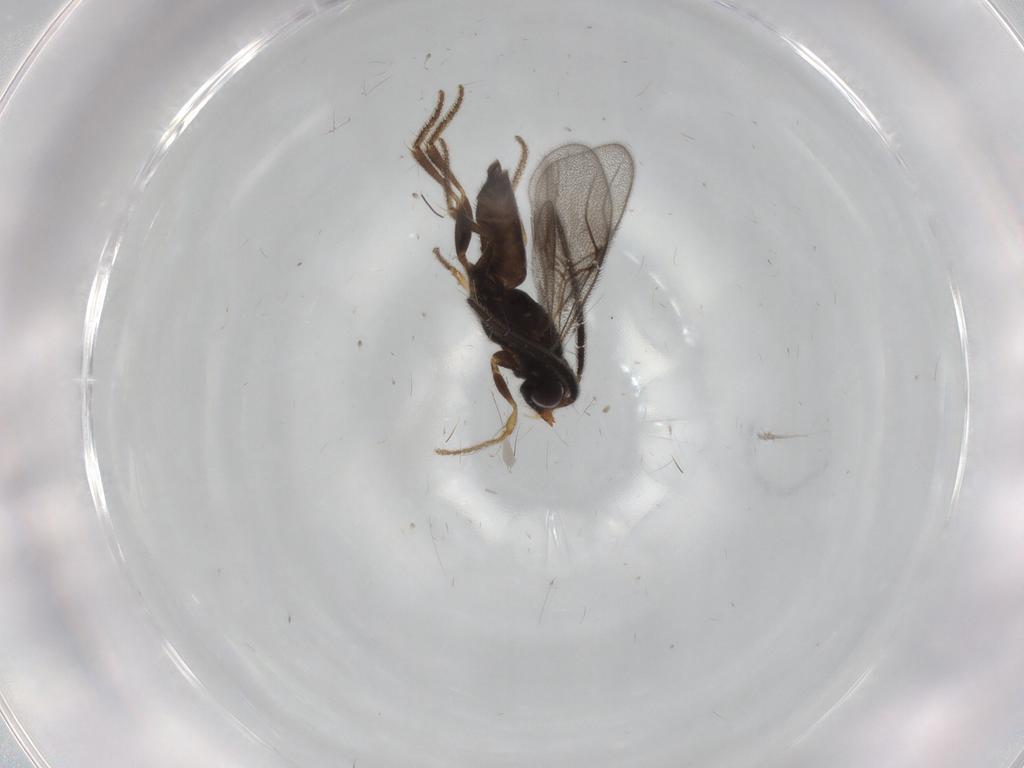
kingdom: Animalia
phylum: Arthropoda
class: Insecta
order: Hymenoptera
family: Dryinidae
